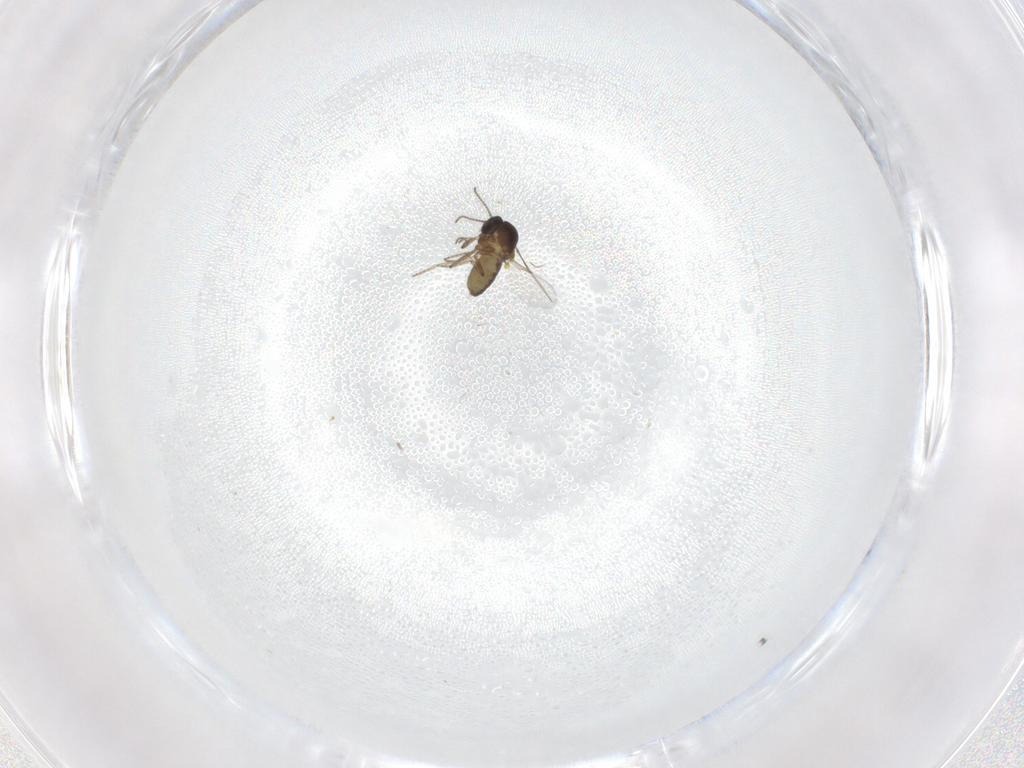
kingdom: Animalia
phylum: Arthropoda
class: Insecta
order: Diptera
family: Ceratopogonidae
